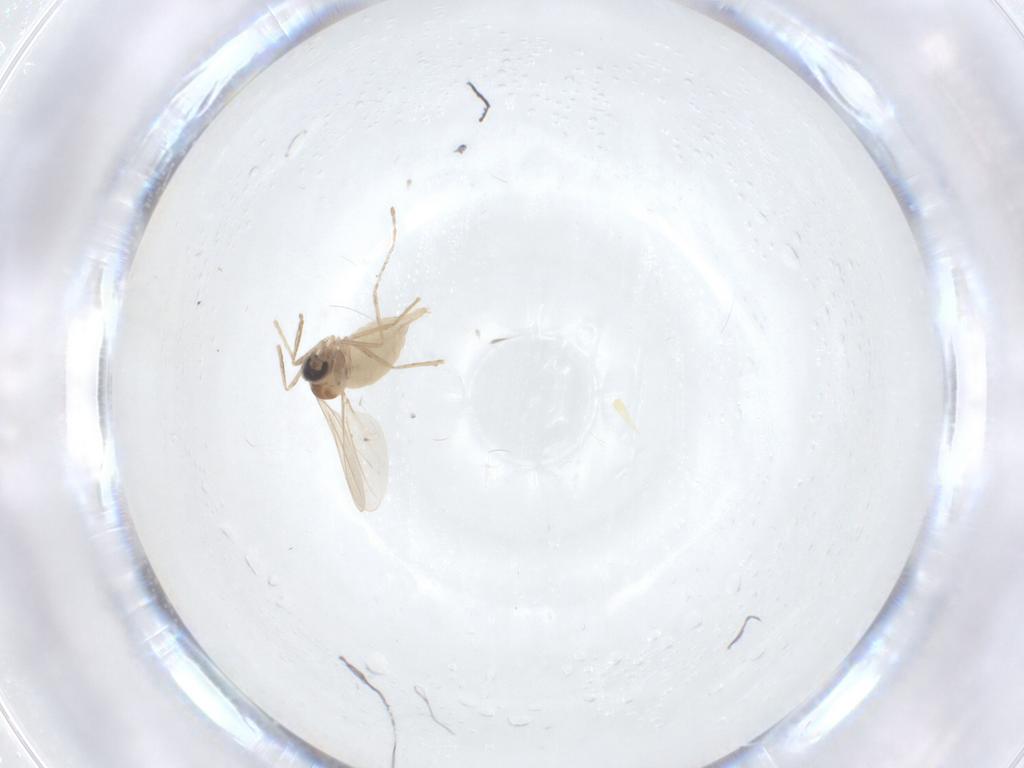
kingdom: Animalia
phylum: Arthropoda
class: Insecta
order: Diptera
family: Cecidomyiidae
